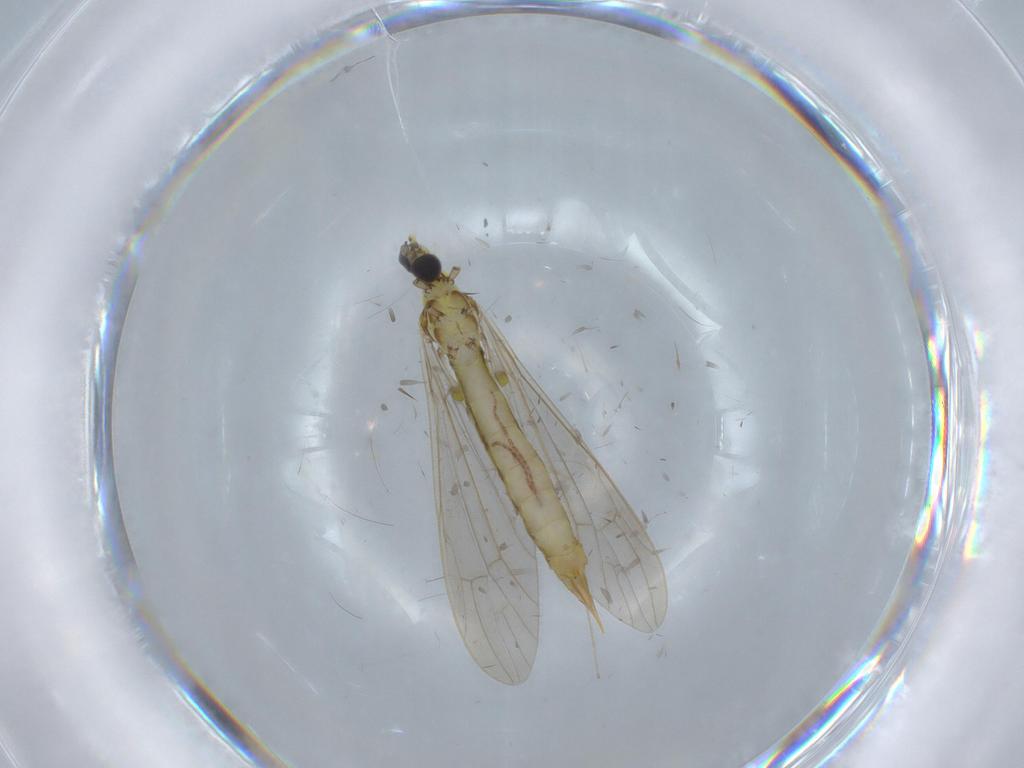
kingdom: Animalia
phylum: Arthropoda
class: Insecta
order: Diptera
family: Limoniidae
